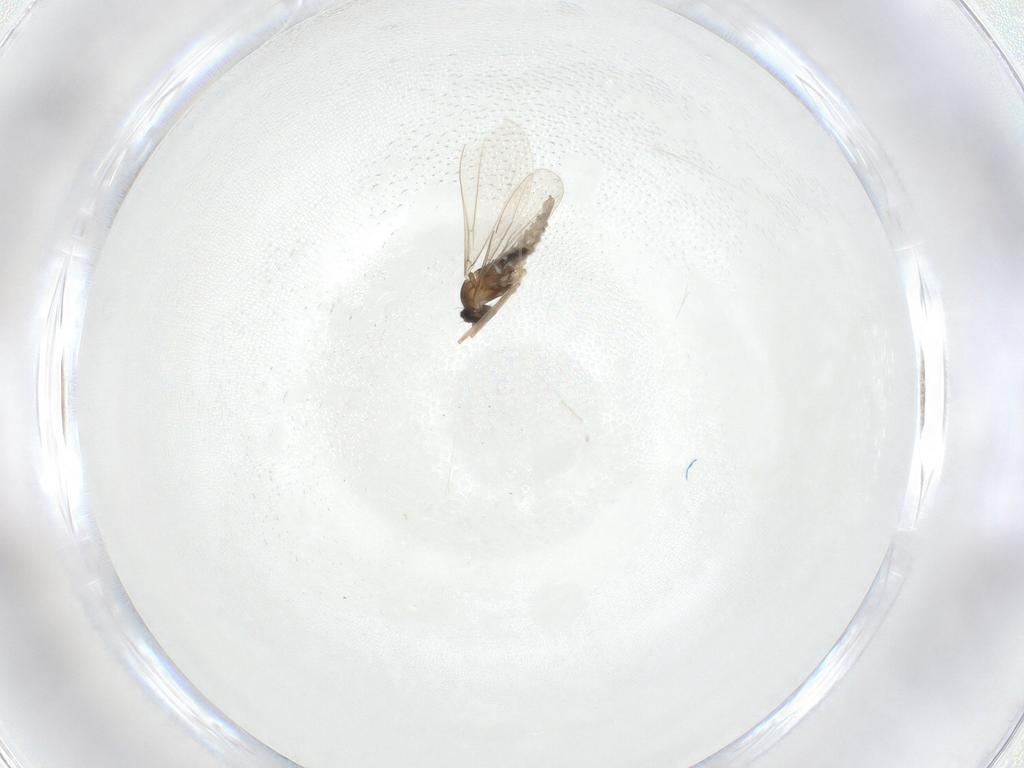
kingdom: Animalia
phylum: Arthropoda
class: Insecta
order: Diptera
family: Cecidomyiidae
